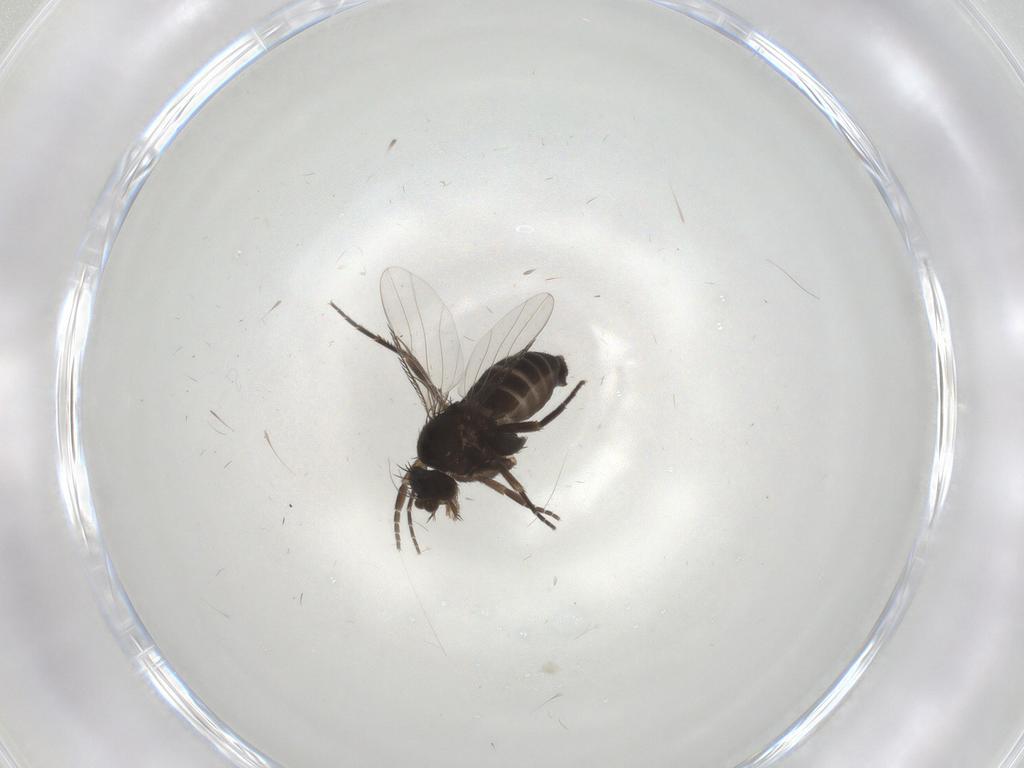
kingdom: Animalia
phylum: Arthropoda
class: Insecta
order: Diptera
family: Phoridae
